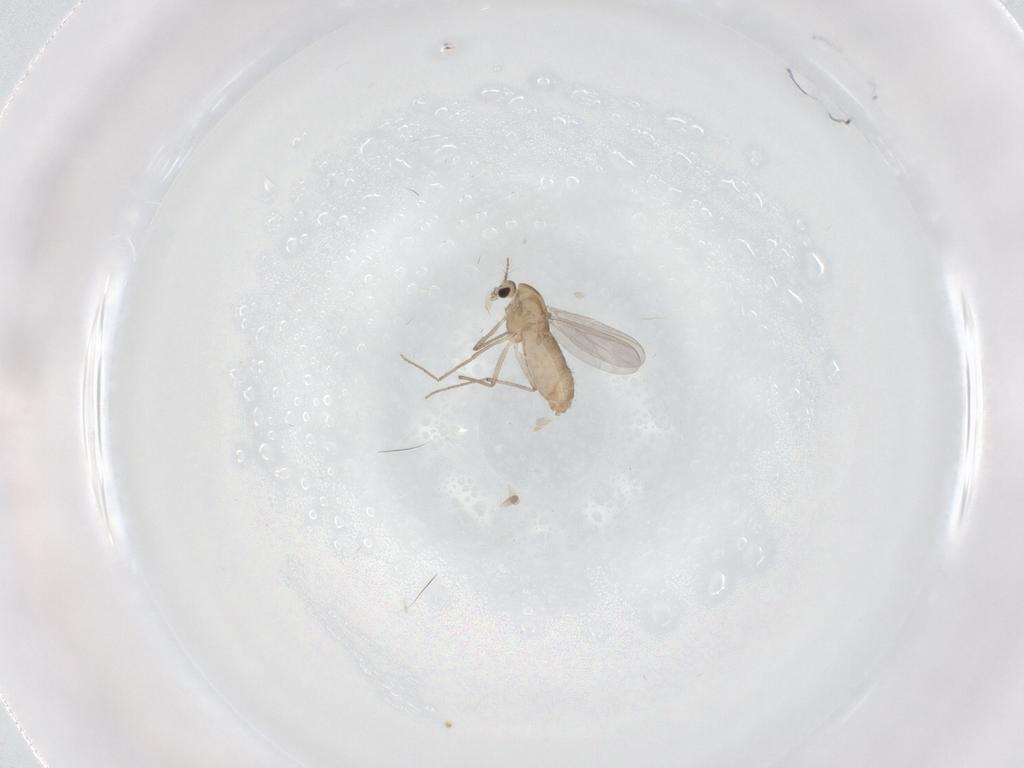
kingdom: Animalia
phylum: Arthropoda
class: Insecta
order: Diptera
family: Chironomidae
